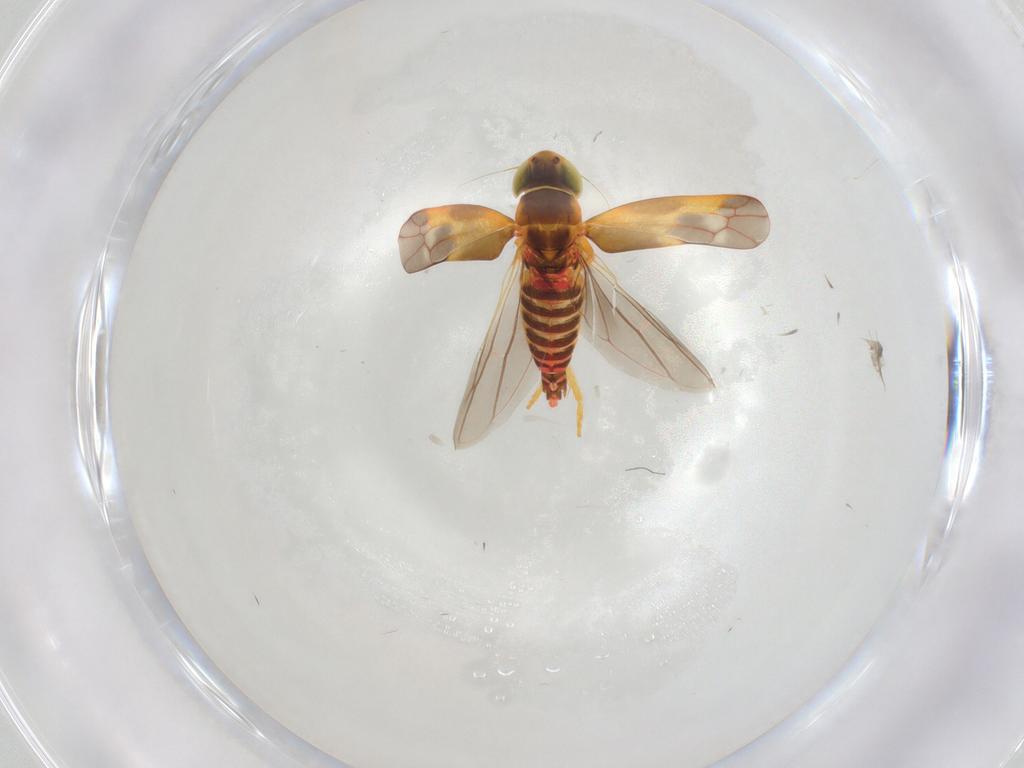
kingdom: Animalia
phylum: Arthropoda
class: Insecta
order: Hemiptera
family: Cicadellidae
